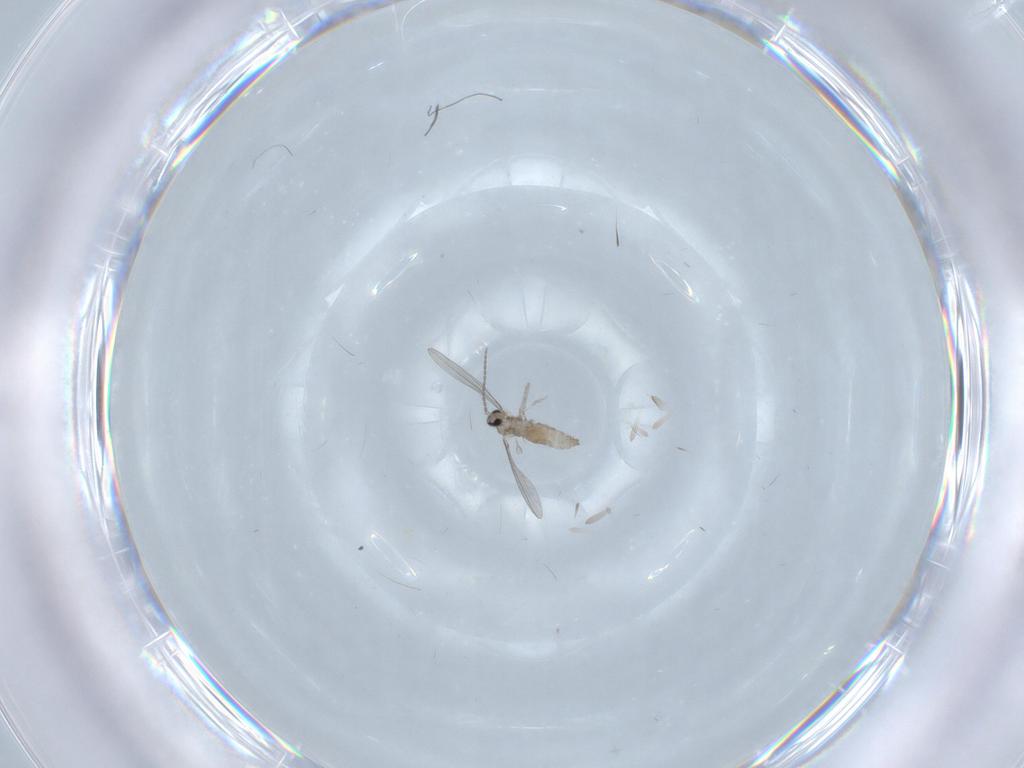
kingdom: Animalia
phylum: Arthropoda
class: Insecta
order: Diptera
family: Cecidomyiidae
